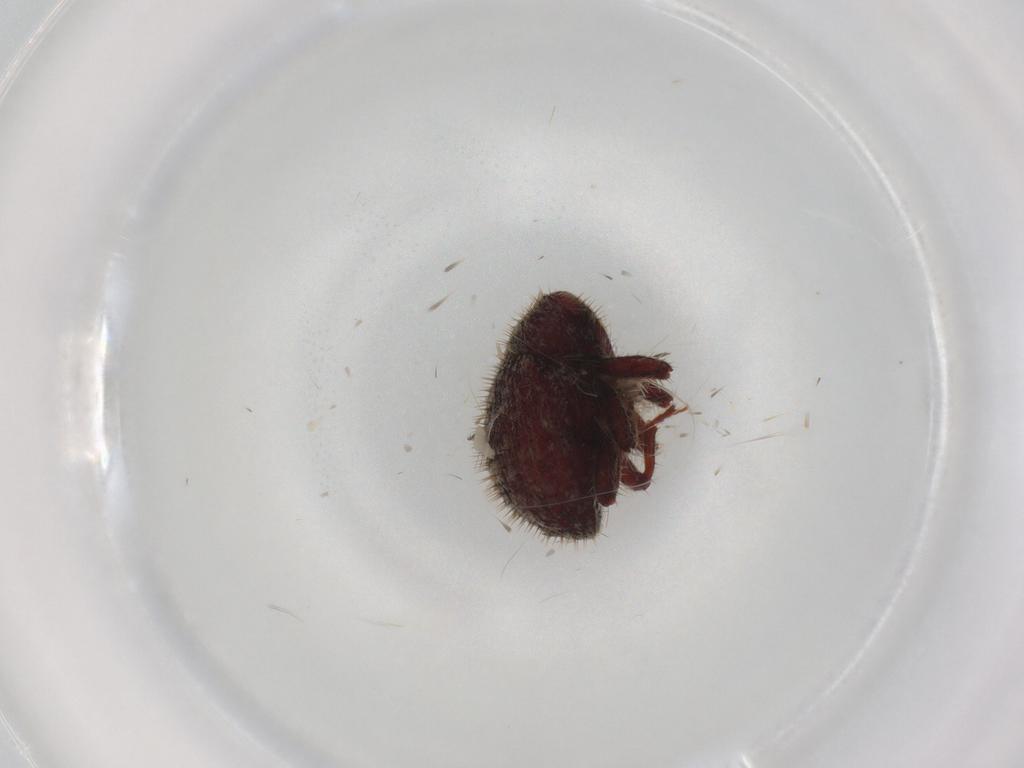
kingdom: Animalia
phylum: Arthropoda
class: Insecta
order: Coleoptera
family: Curculionidae
